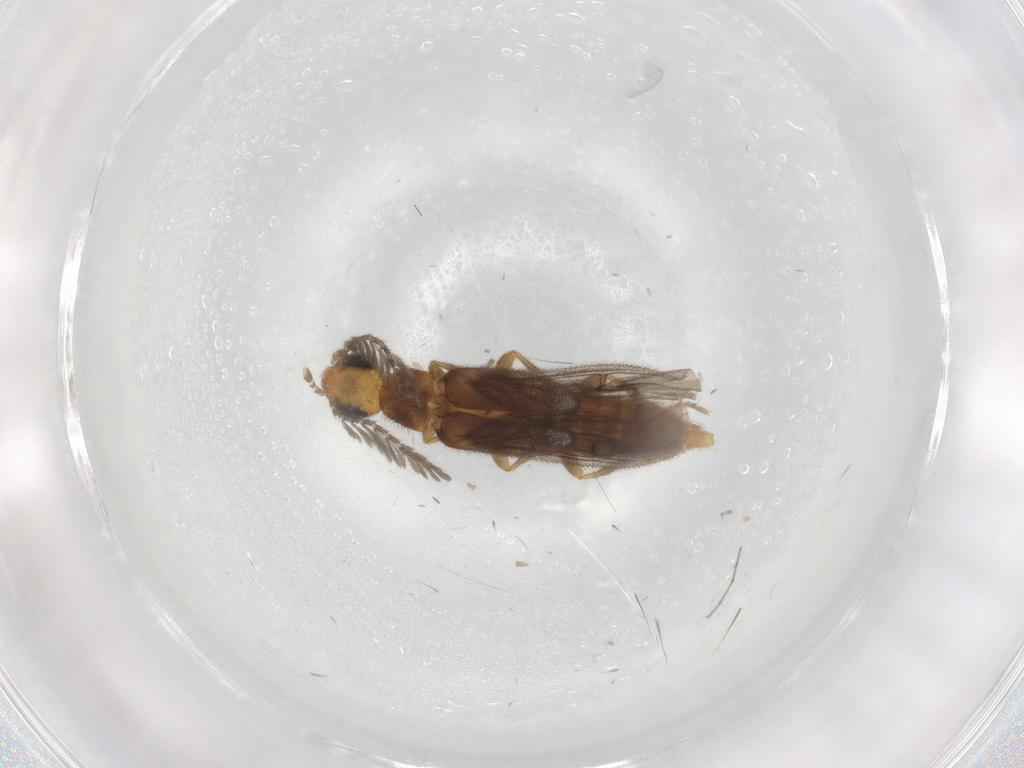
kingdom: Animalia
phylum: Arthropoda
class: Insecta
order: Coleoptera
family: Phengodidae
